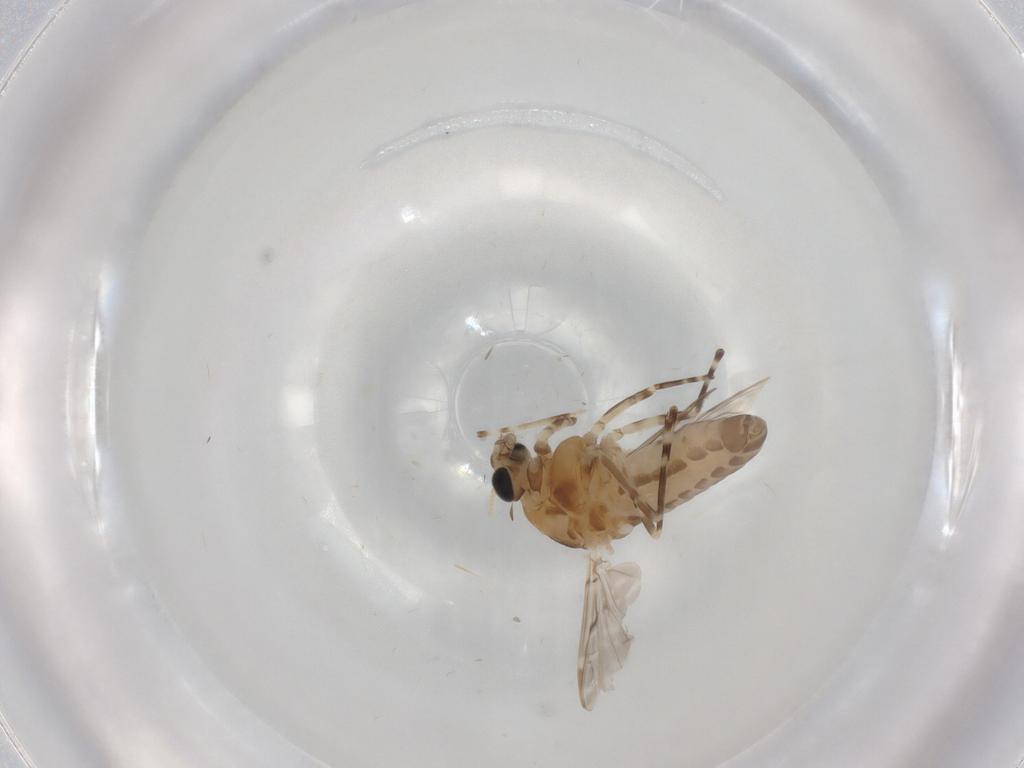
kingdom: Animalia
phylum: Arthropoda
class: Insecta
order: Diptera
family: Chironomidae
